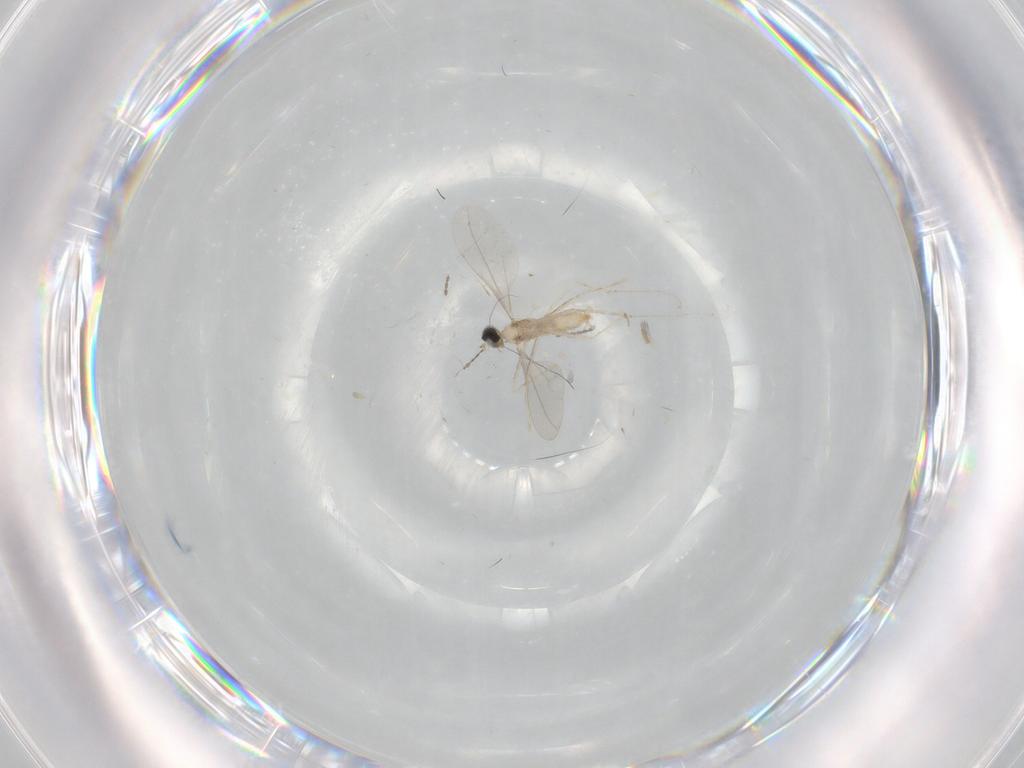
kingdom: Animalia
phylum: Arthropoda
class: Insecta
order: Diptera
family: Cecidomyiidae
